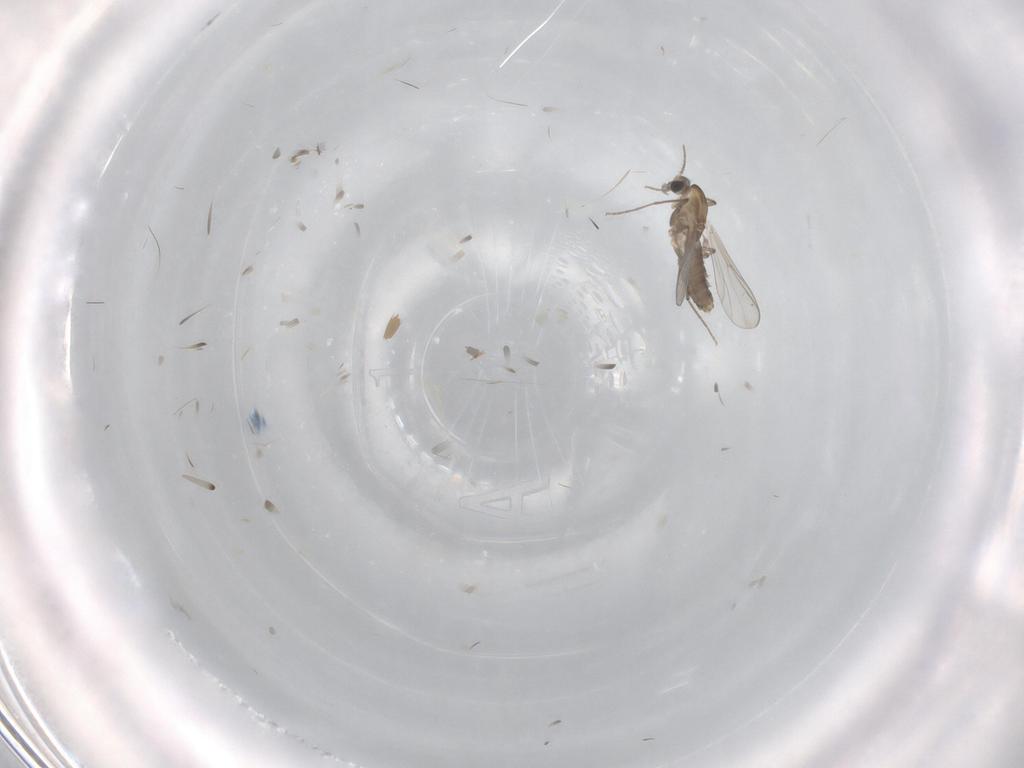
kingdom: Animalia
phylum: Arthropoda
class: Insecta
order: Diptera
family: Chironomidae
